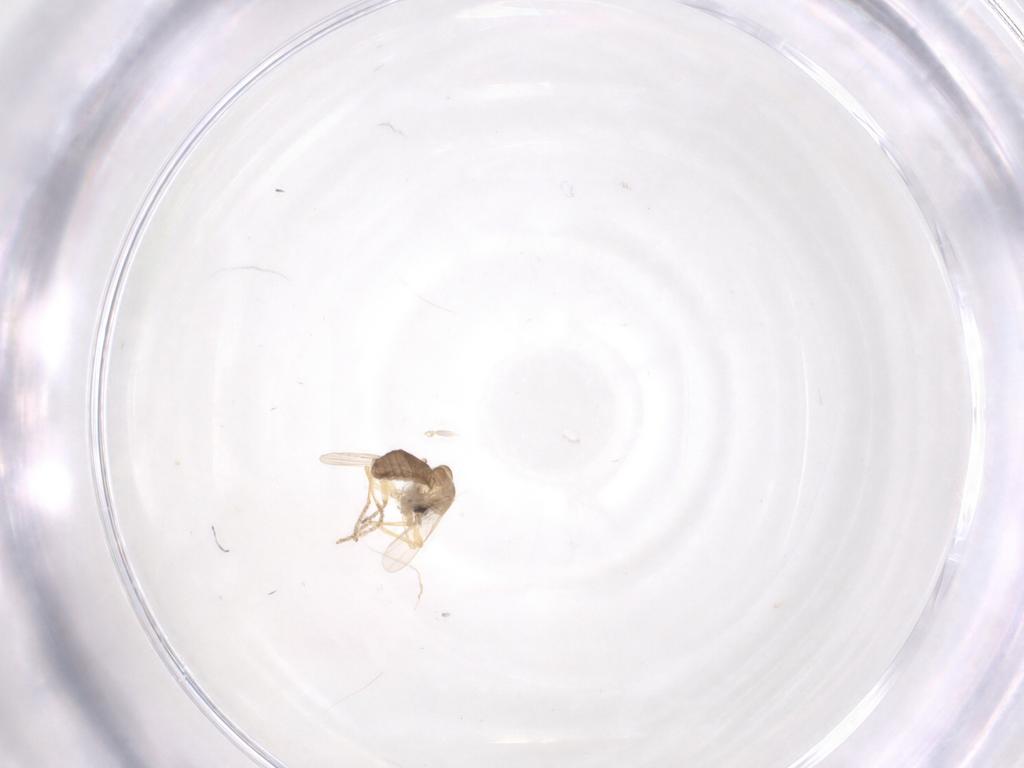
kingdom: Animalia
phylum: Arthropoda
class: Insecta
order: Diptera
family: Ceratopogonidae
